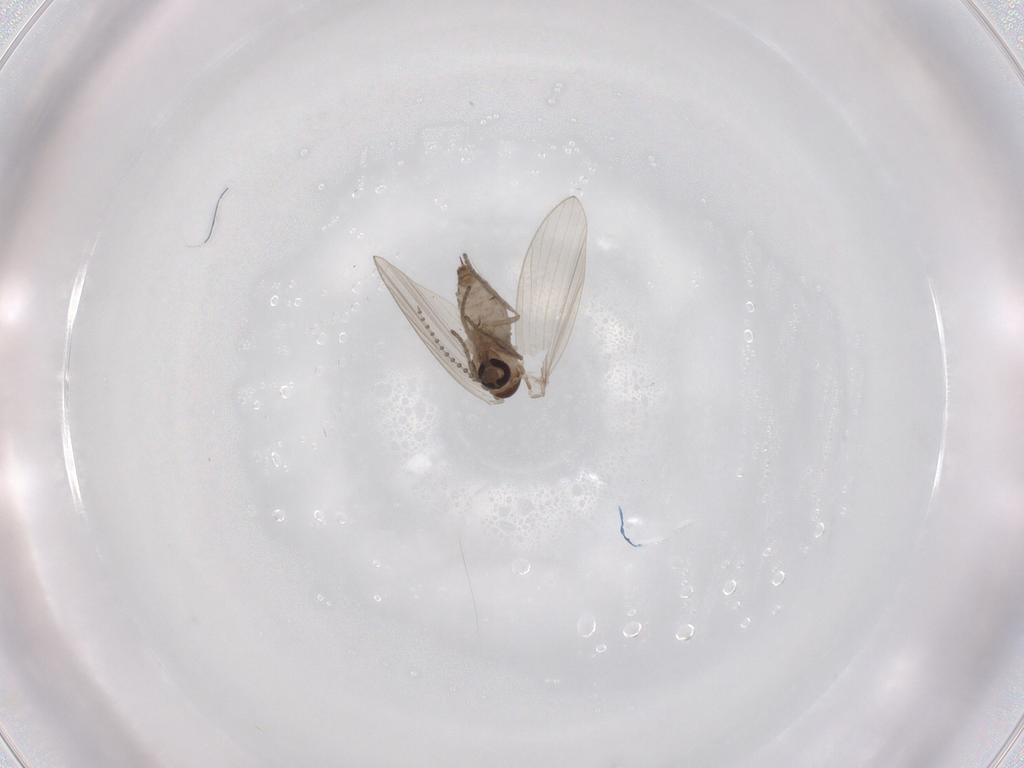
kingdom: Animalia
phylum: Arthropoda
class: Insecta
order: Diptera
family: Psychodidae
